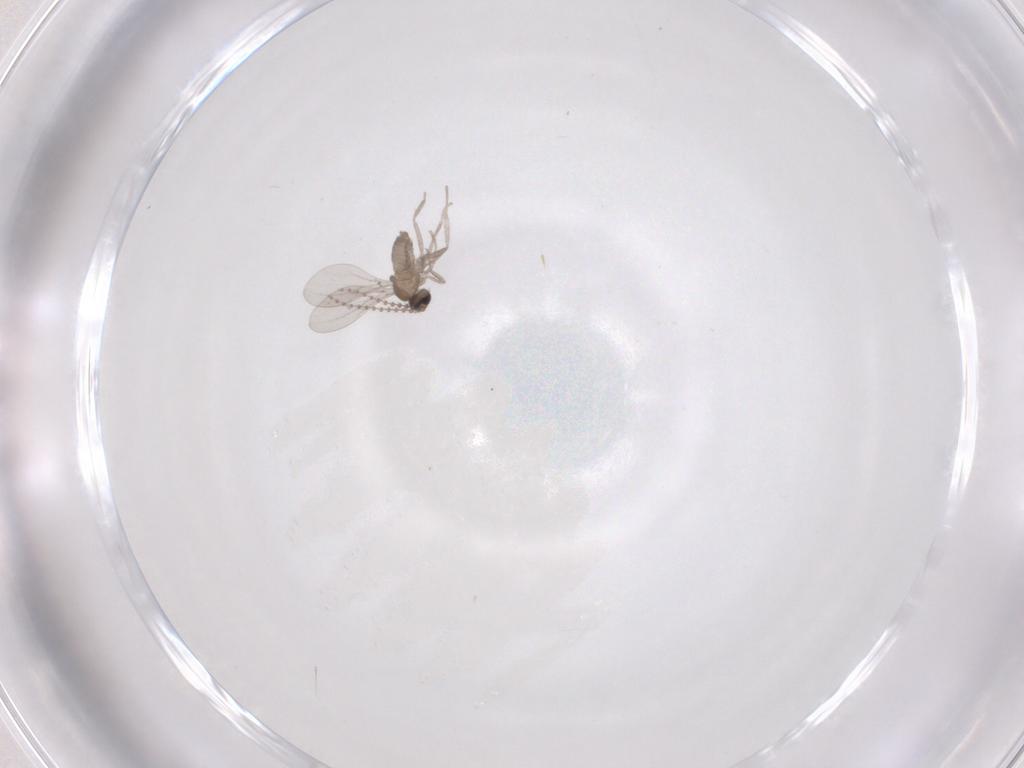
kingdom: Animalia
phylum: Arthropoda
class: Insecta
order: Diptera
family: Cecidomyiidae
